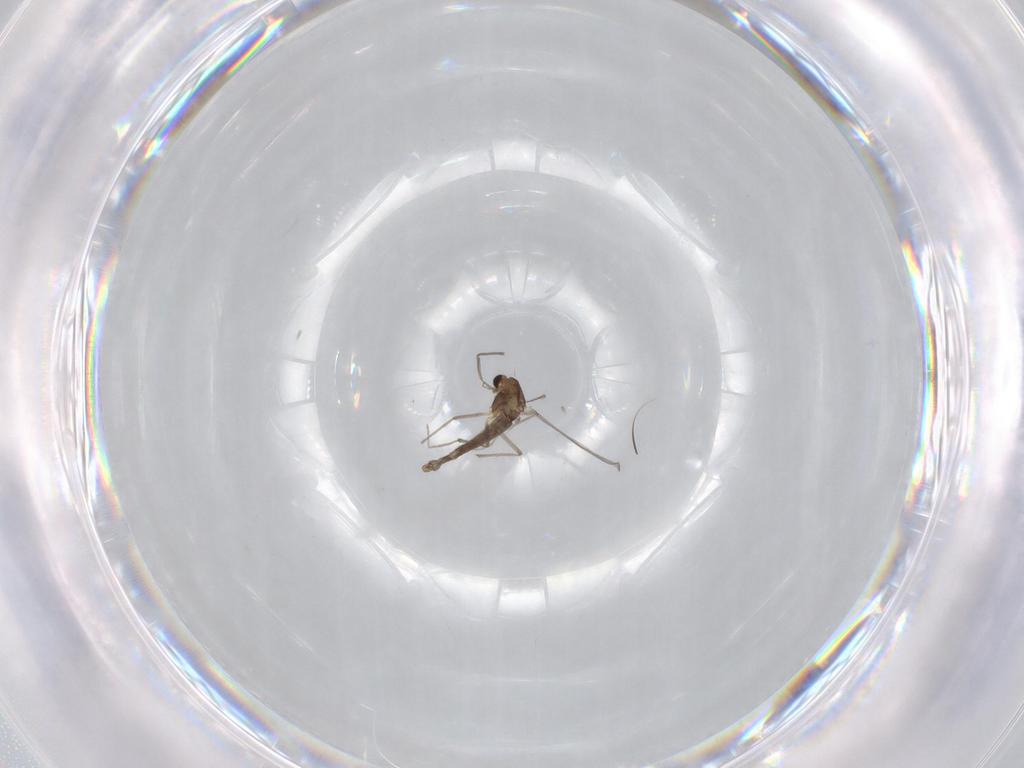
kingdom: Animalia
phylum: Arthropoda
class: Insecta
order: Diptera
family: Chironomidae
